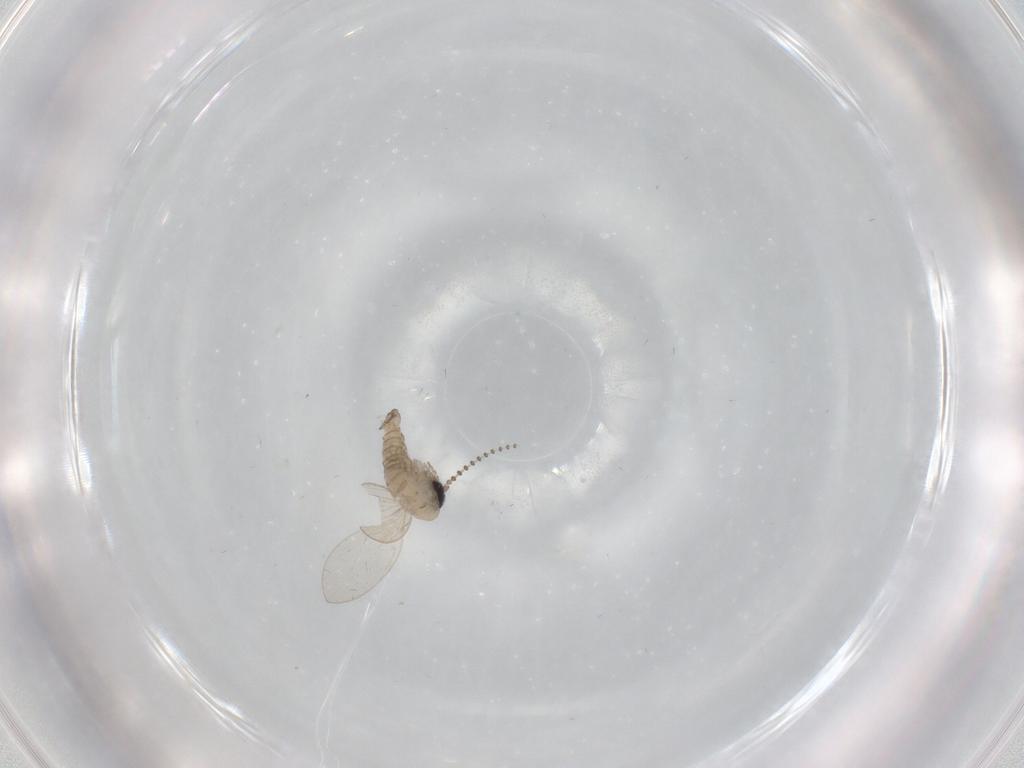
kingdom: Animalia
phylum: Arthropoda
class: Insecta
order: Diptera
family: Psychodidae
